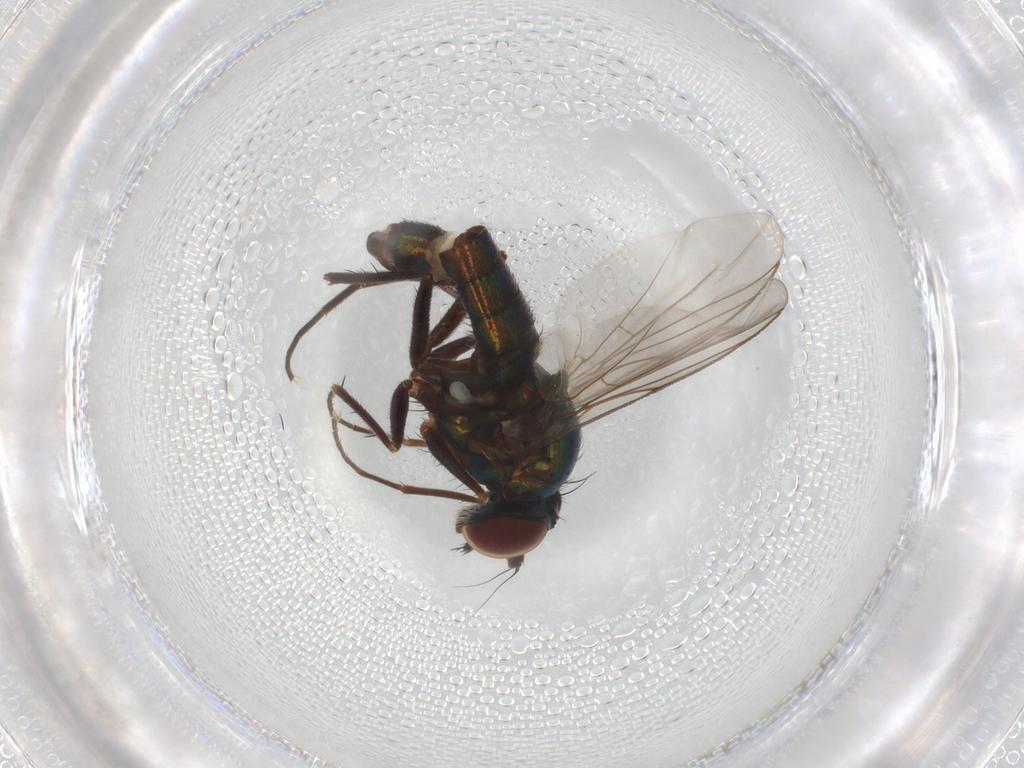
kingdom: Animalia
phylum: Arthropoda
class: Insecta
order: Diptera
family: Dolichopodidae
